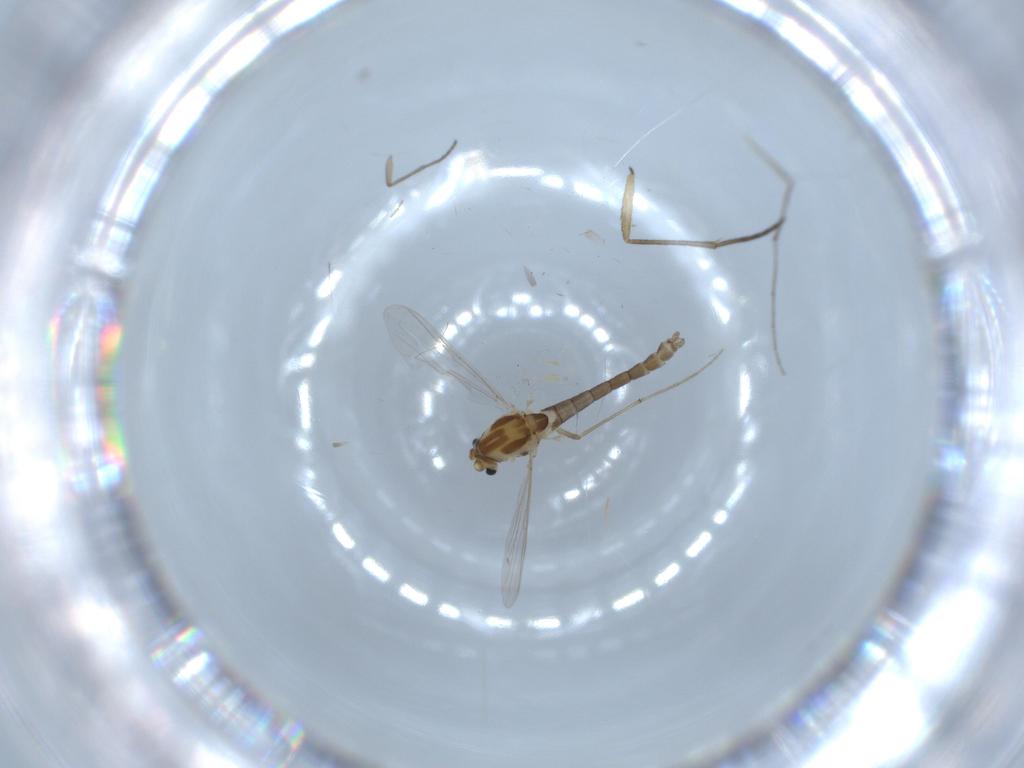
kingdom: Animalia
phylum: Arthropoda
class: Insecta
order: Diptera
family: Chironomidae
